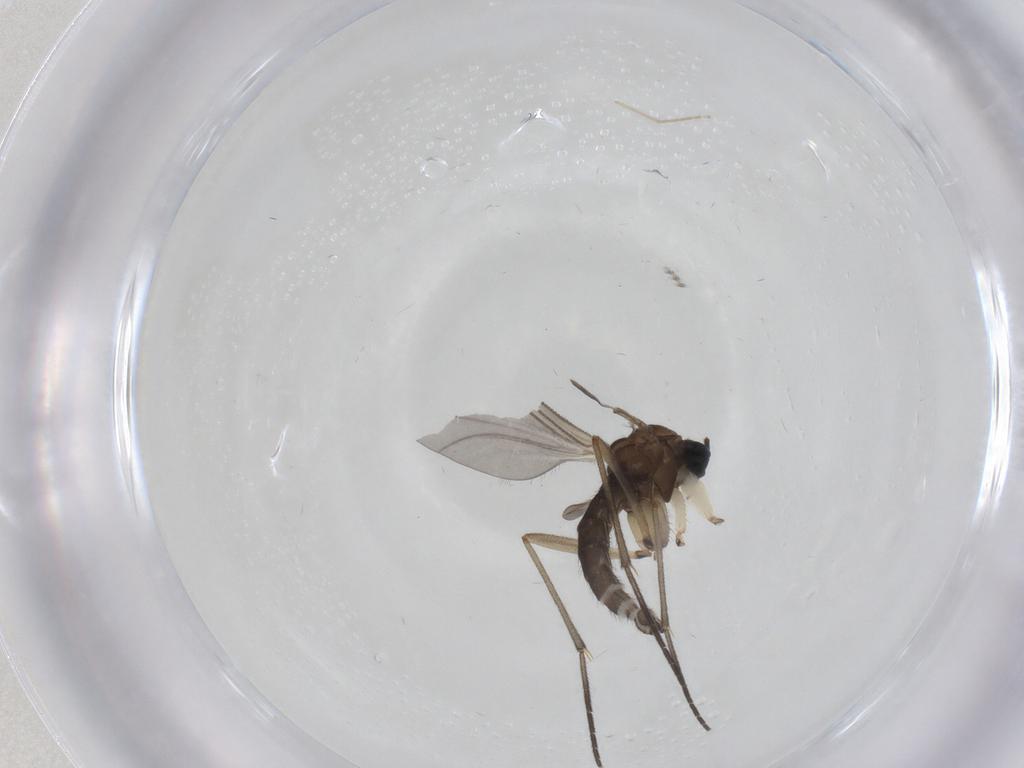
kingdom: Animalia
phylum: Arthropoda
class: Insecta
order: Diptera
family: Sciaridae
